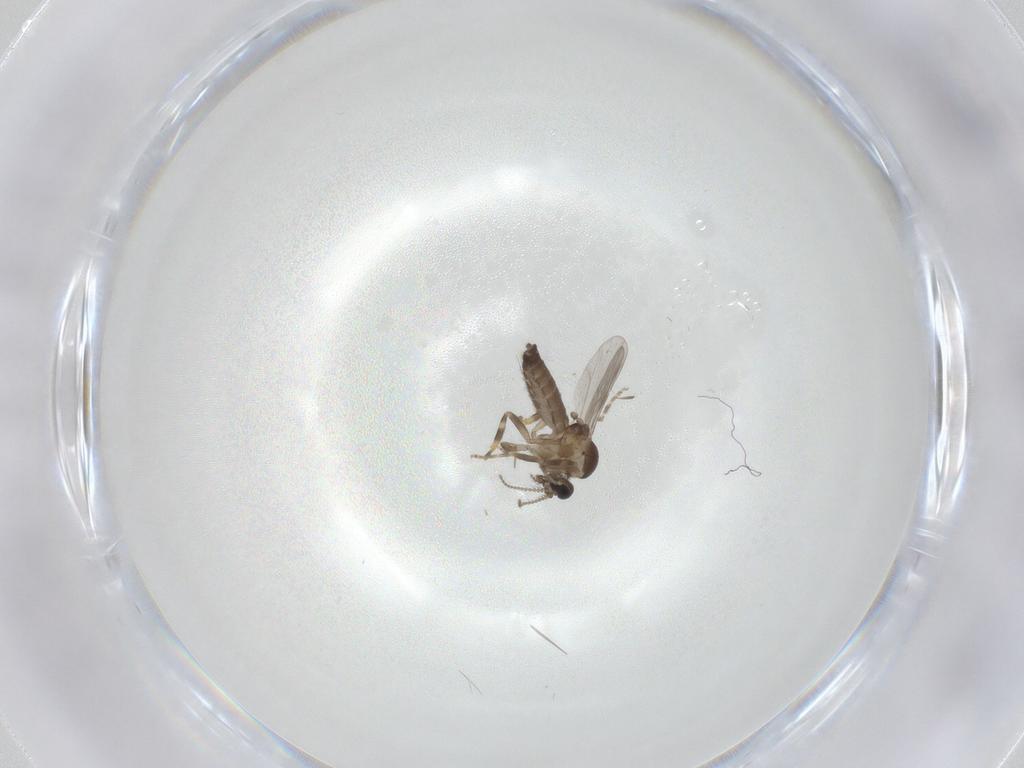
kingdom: Animalia
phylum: Arthropoda
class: Insecta
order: Diptera
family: Ceratopogonidae
